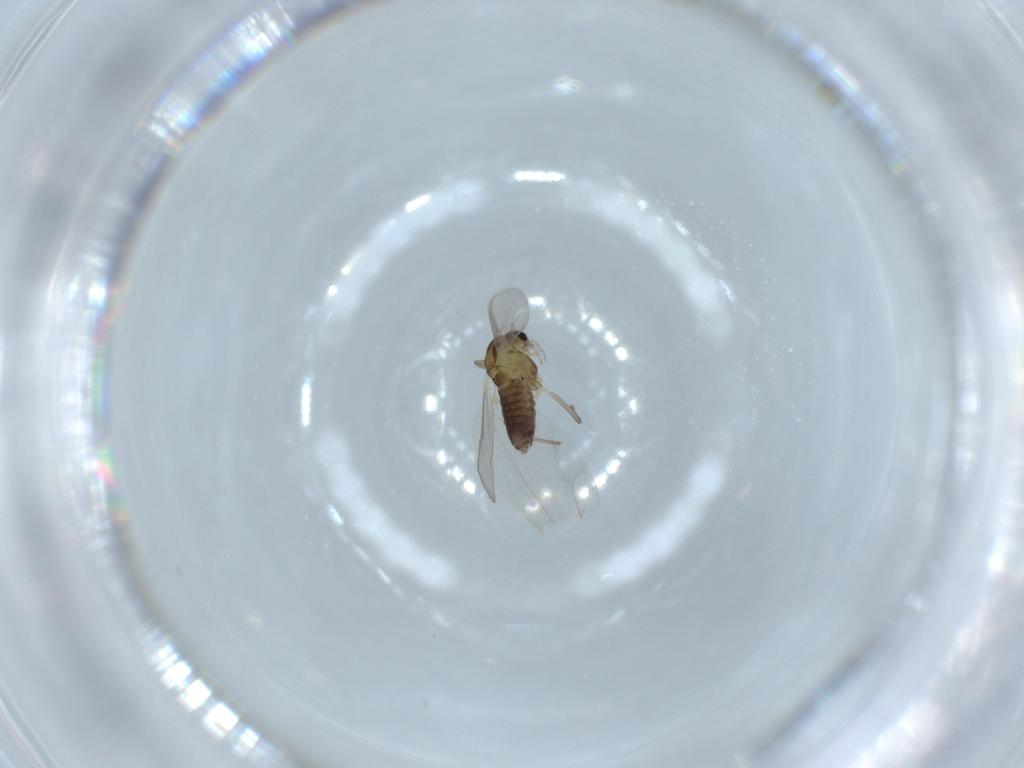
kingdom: Animalia
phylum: Arthropoda
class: Insecta
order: Diptera
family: Chironomidae
